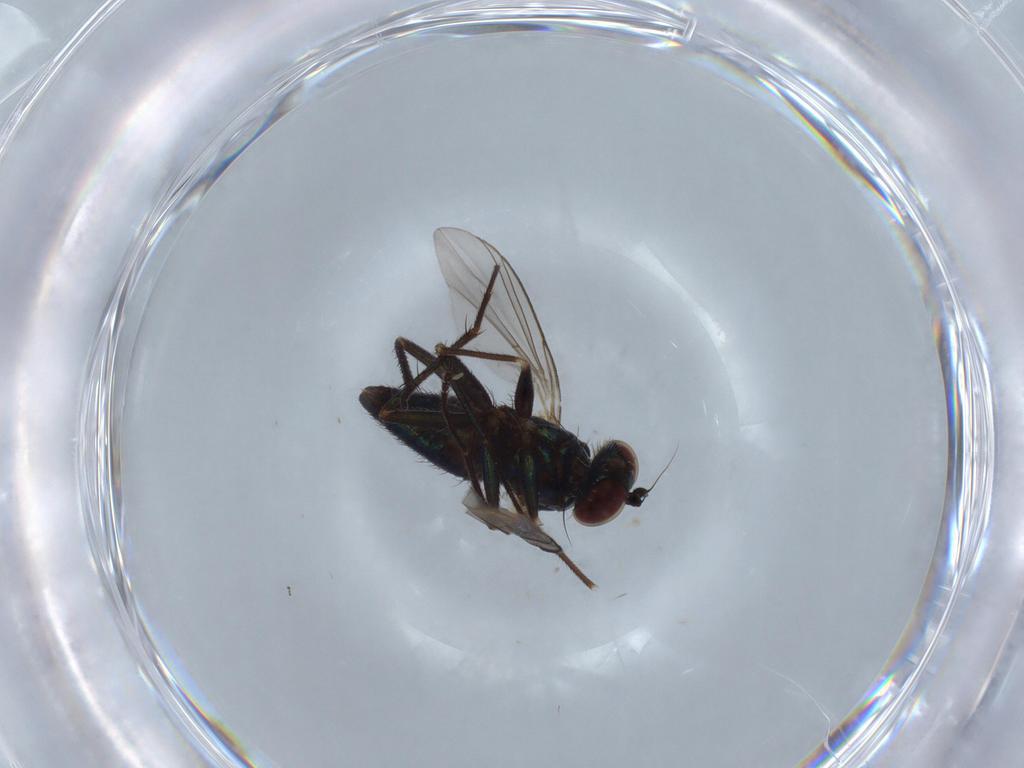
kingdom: Animalia
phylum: Arthropoda
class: Insecta
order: Diptera
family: Dolichopodidae
